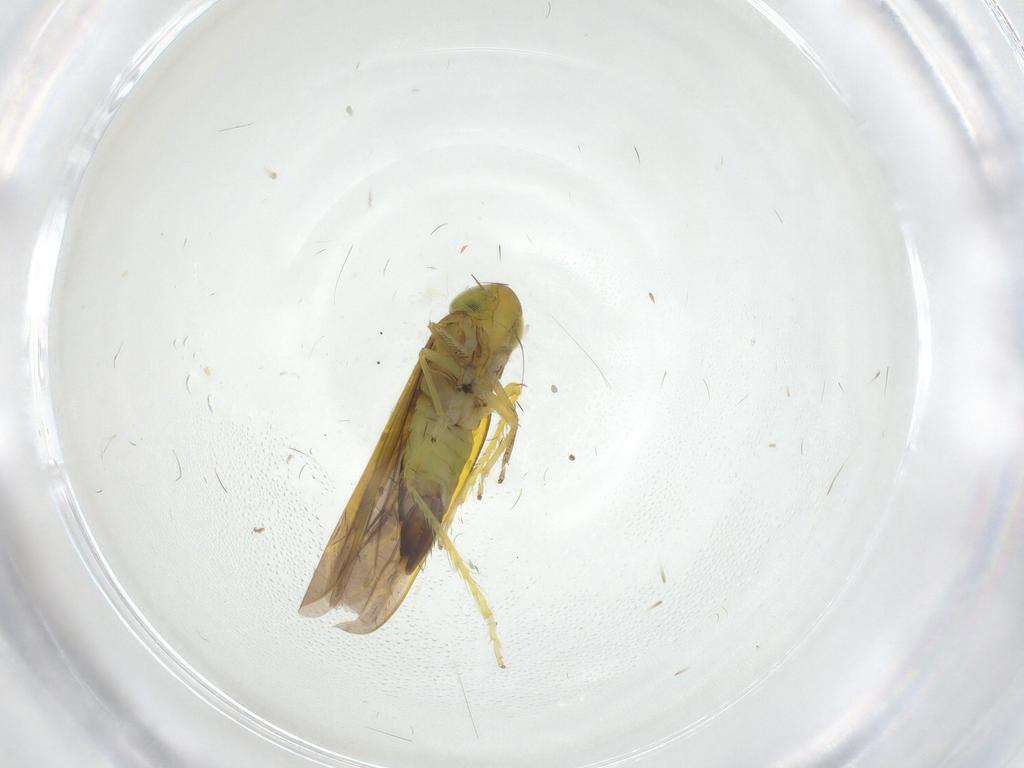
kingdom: Animalia
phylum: Arthropoda
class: Insecta
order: Hemiptera
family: Cicadellidae
